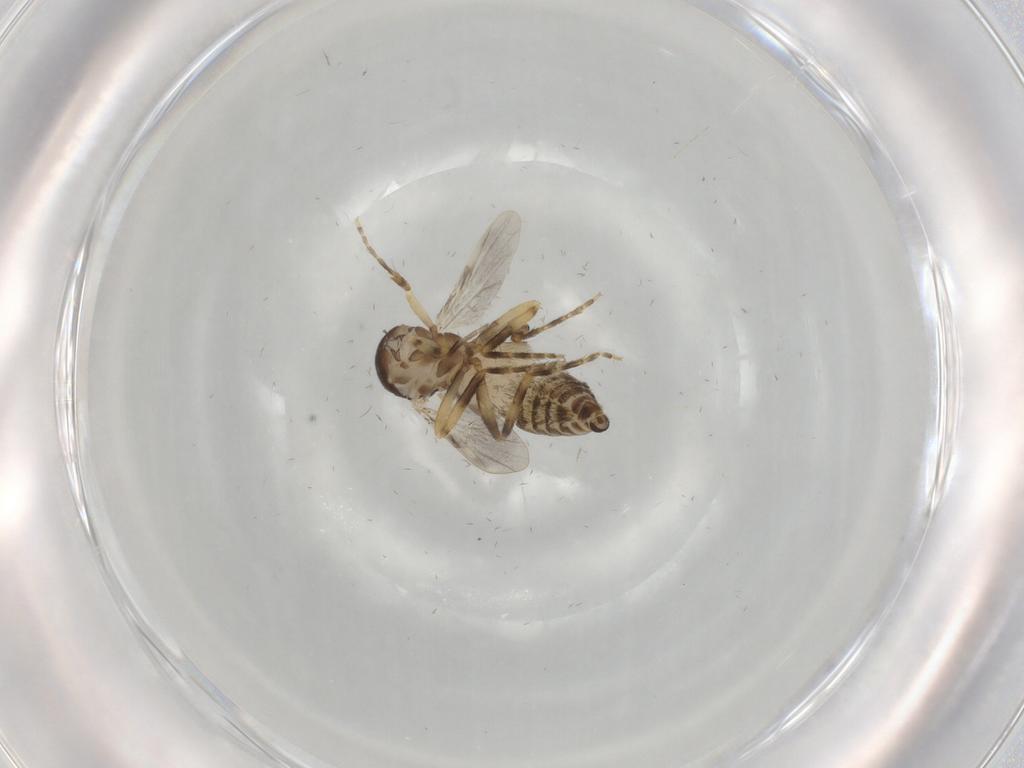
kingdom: Animalia
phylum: Arthropoda
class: Insecta
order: Diptera
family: Ceratopogonidae
